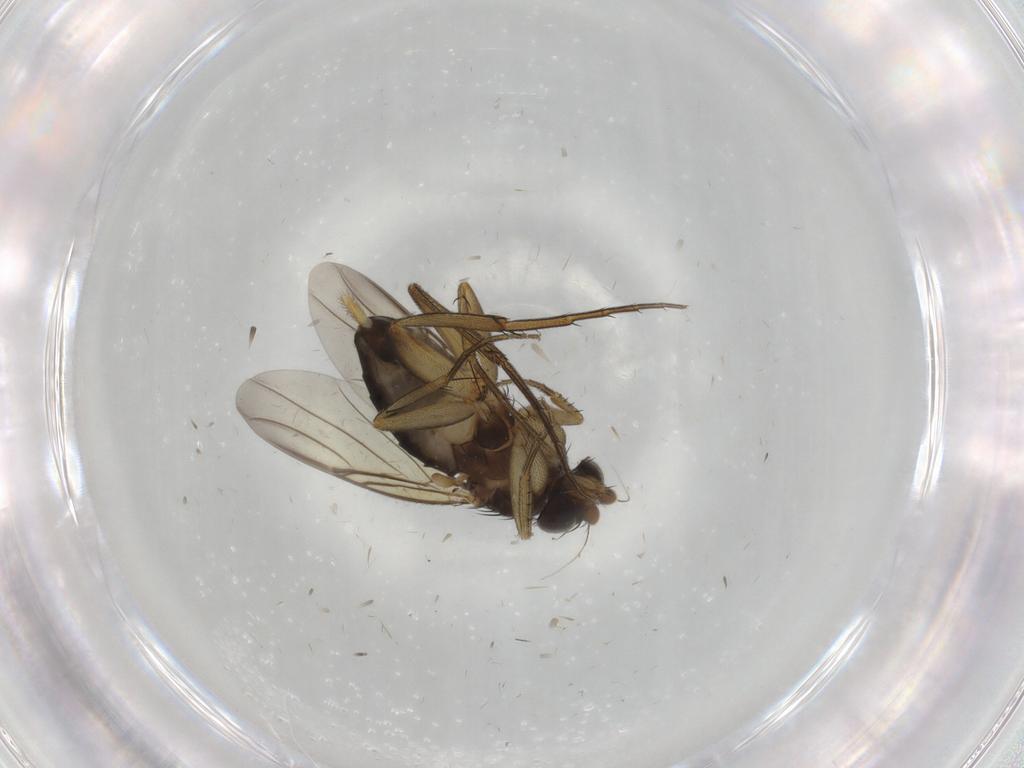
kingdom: Animalia
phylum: Arthropoda
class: Insecta
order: Diptera
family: Phoridae
